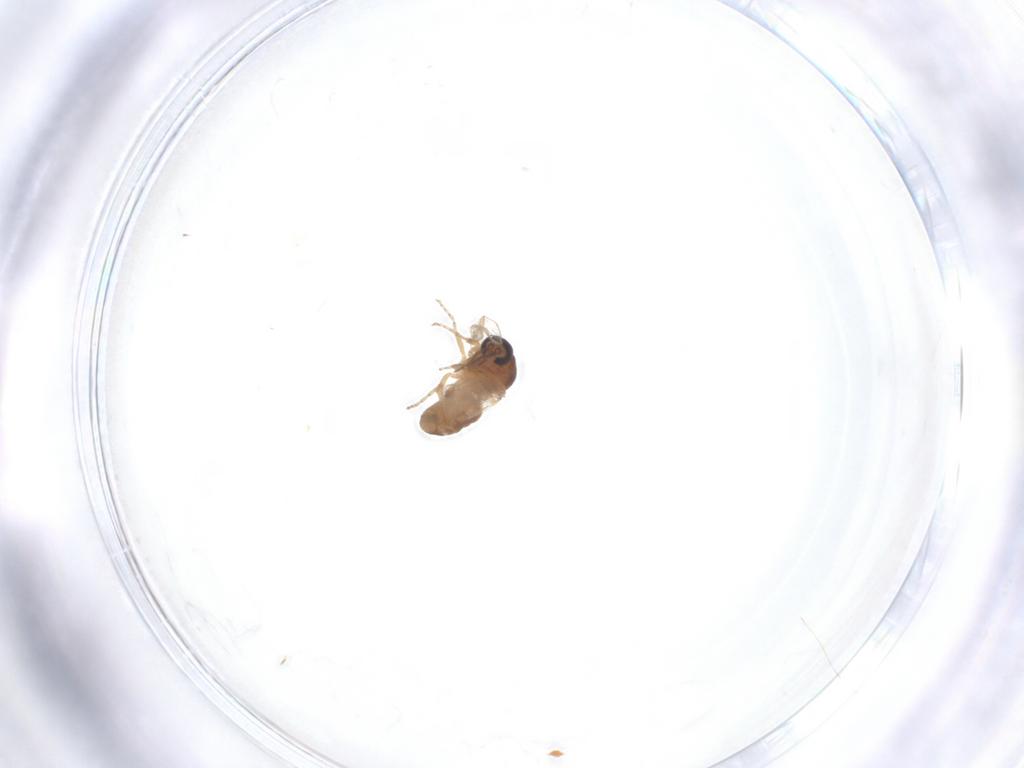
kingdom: Animalia
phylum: Arthropoda
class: Insecta
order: Diptera
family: Ceratopogonidae
